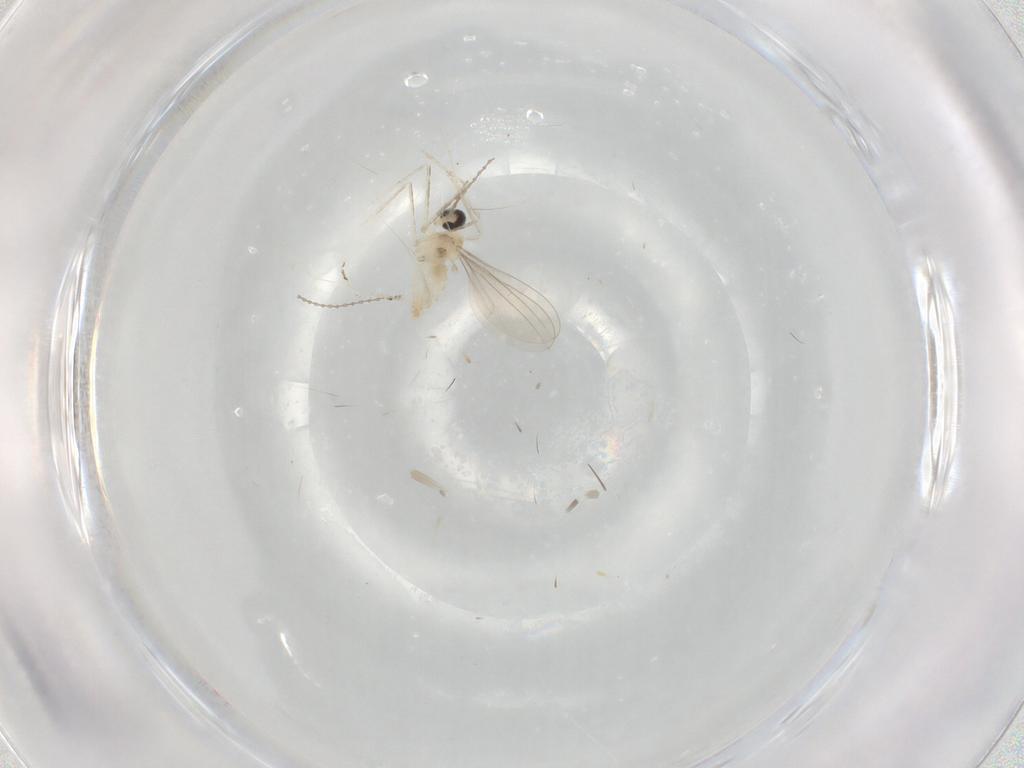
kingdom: Animalia
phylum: Arthropoda
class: Insecta
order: Diptera
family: Cecidomyiidae
